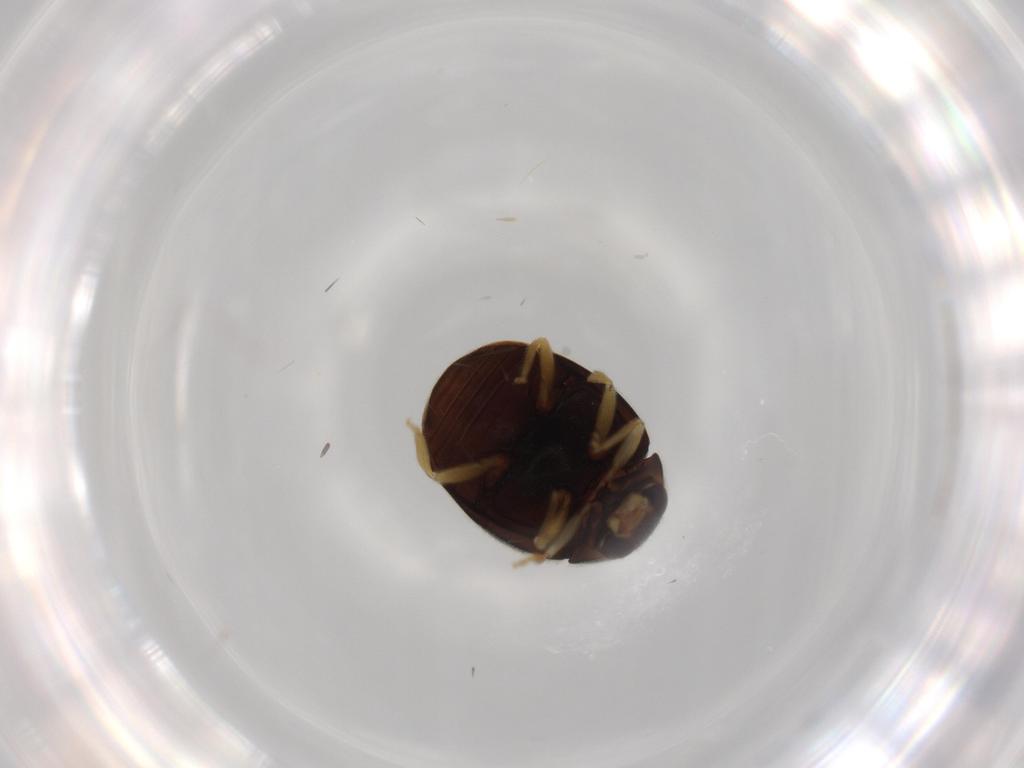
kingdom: Animalia
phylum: Arthropoda
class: Insecta
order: Coleoptera
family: Coccinellidae
